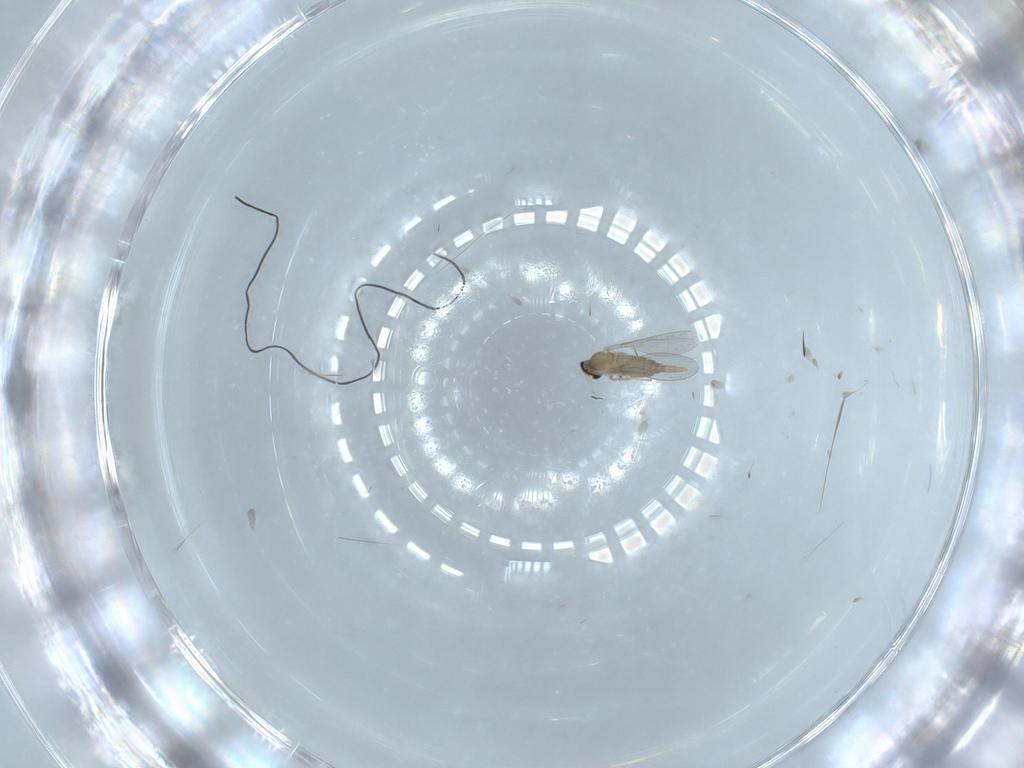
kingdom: Animalia
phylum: Arthropoda
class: Insecta
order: Diptera
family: Cecidomyiidae
